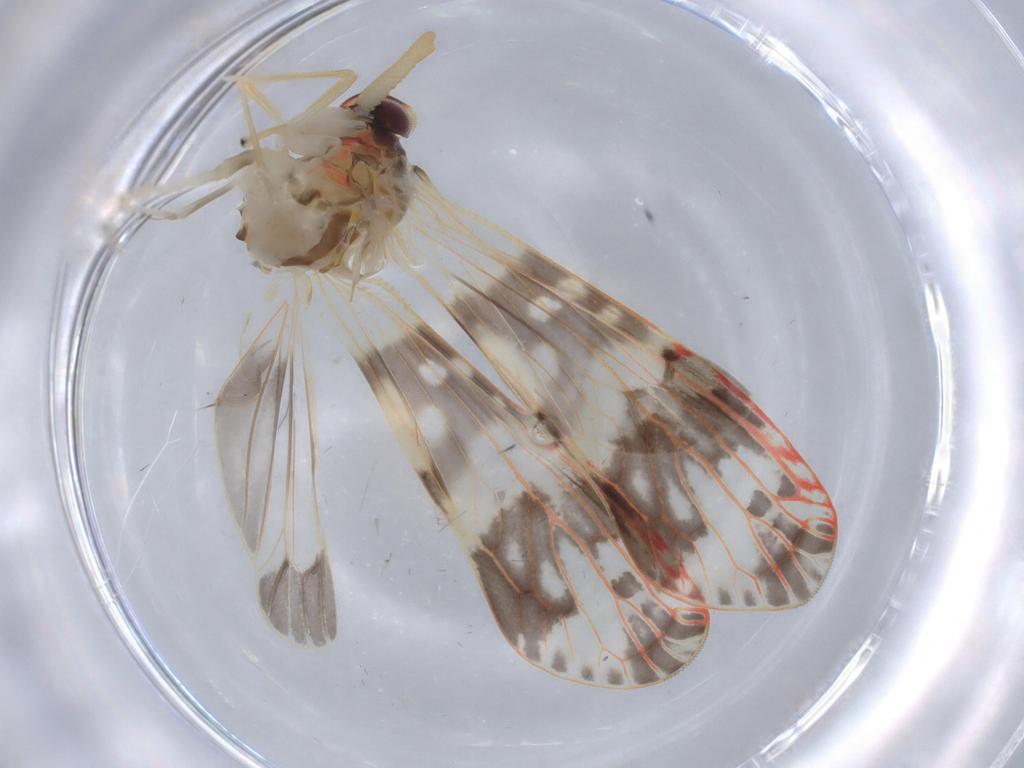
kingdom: Animalia
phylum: Arthropoda
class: Insecta
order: Hemiptera
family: Derbidae
